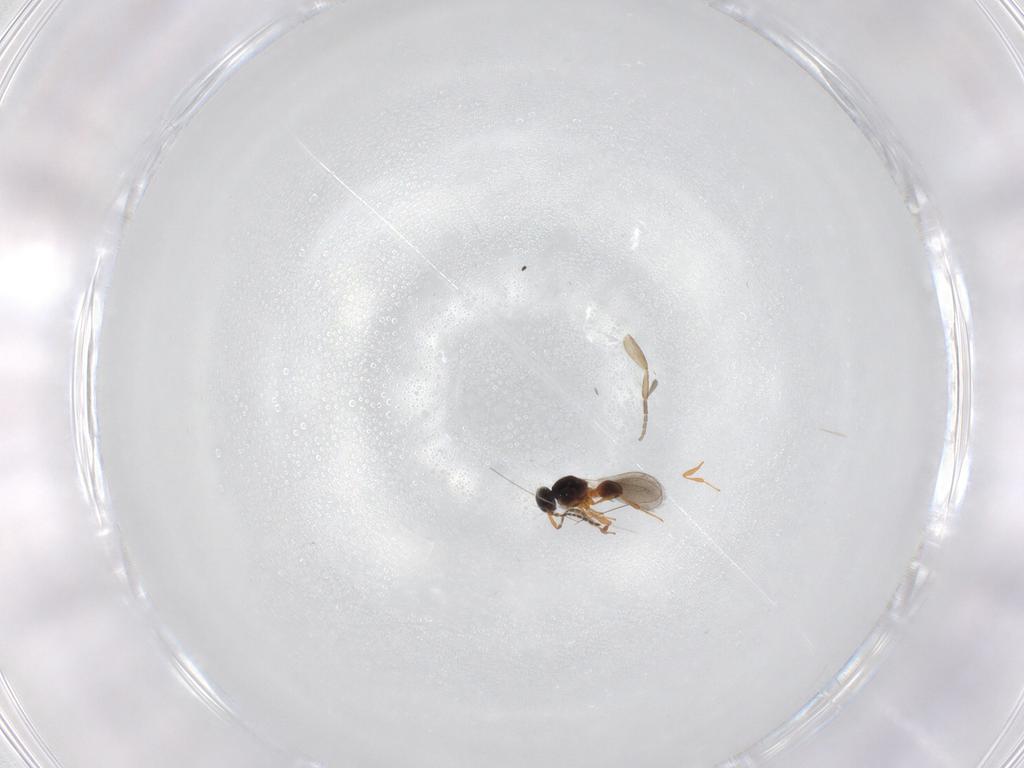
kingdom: Animalia
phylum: Arthropoda
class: Insecta
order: Hymenoptera
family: Platygastridae
